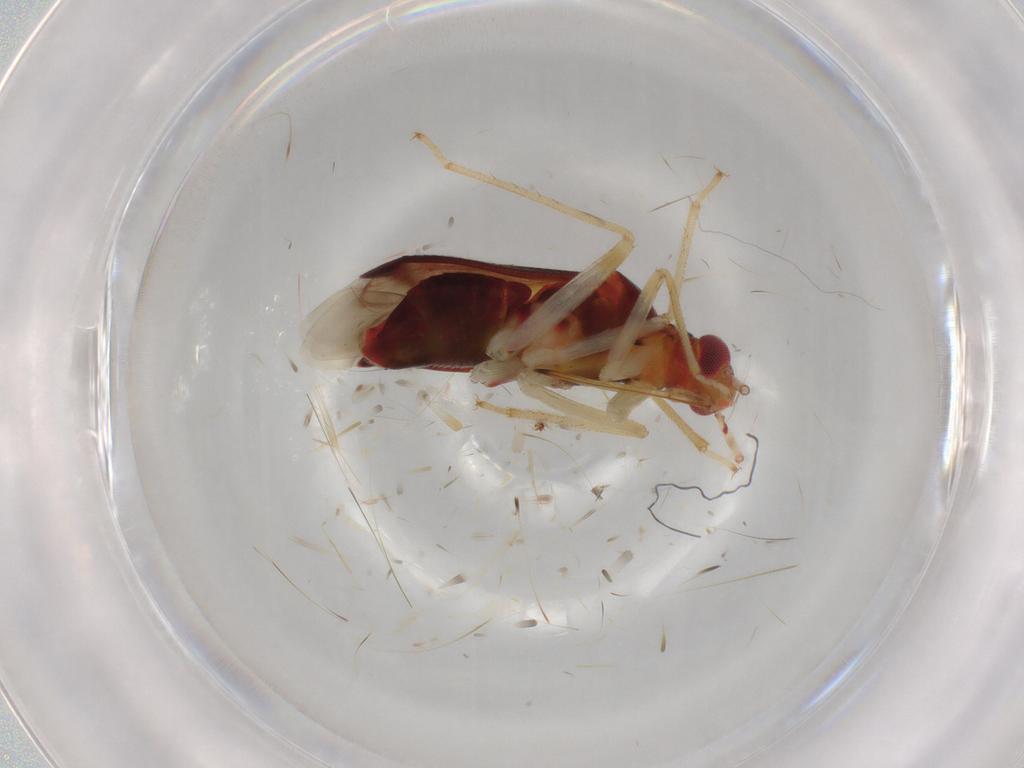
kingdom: Animalia
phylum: Arthropoda
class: Insecta
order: Hemiptera
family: Miridae
